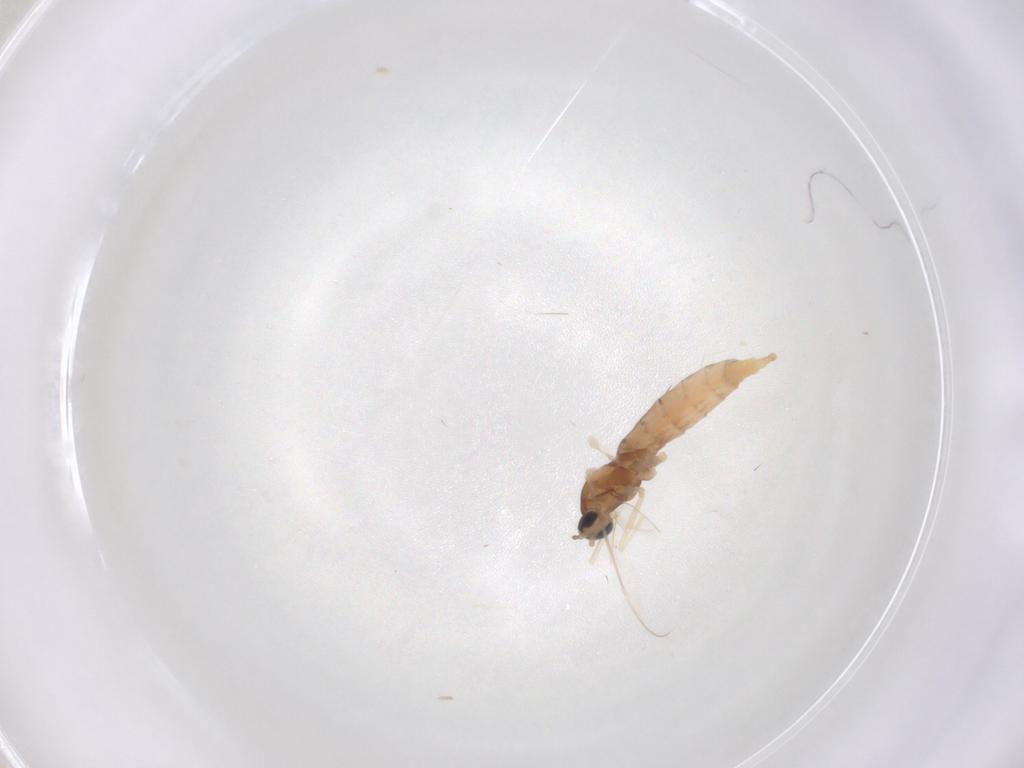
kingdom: Animalia
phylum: Arthropoda
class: Insecta
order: Diptera
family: Cecidomyiidae
